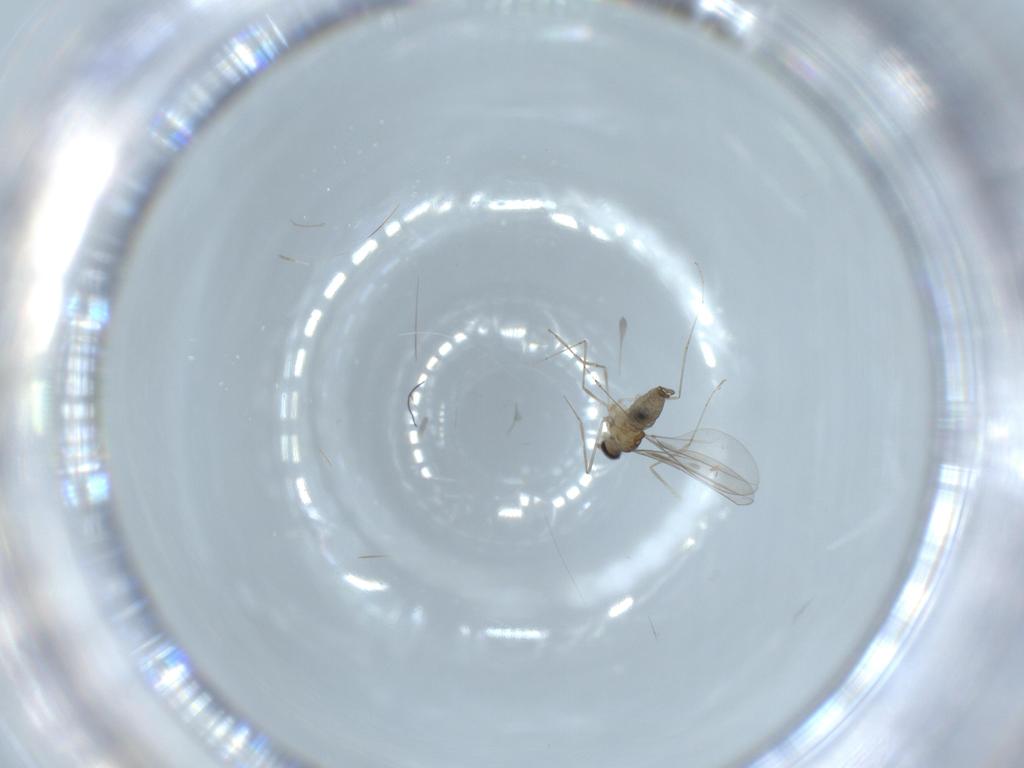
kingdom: Animalia
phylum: Arthropoda
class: Insecta
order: Diptera
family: Cecidomyiidae
